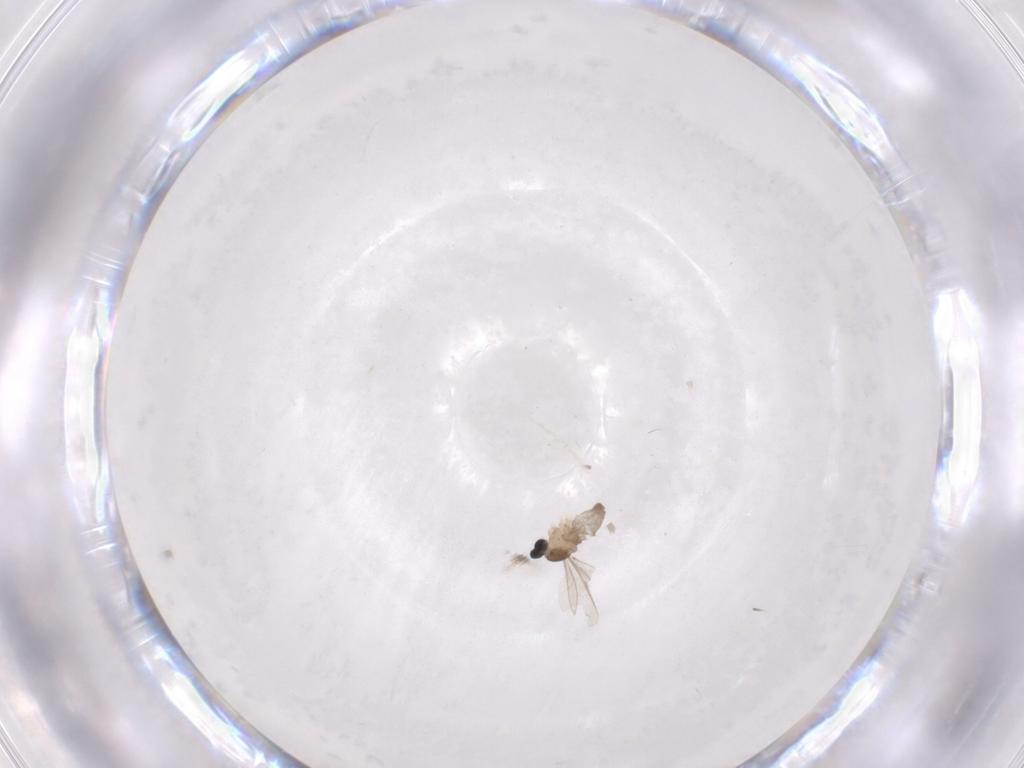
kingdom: Animalia
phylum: Arthropoda
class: Insecta
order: Diptera
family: Cecidomyiidae
